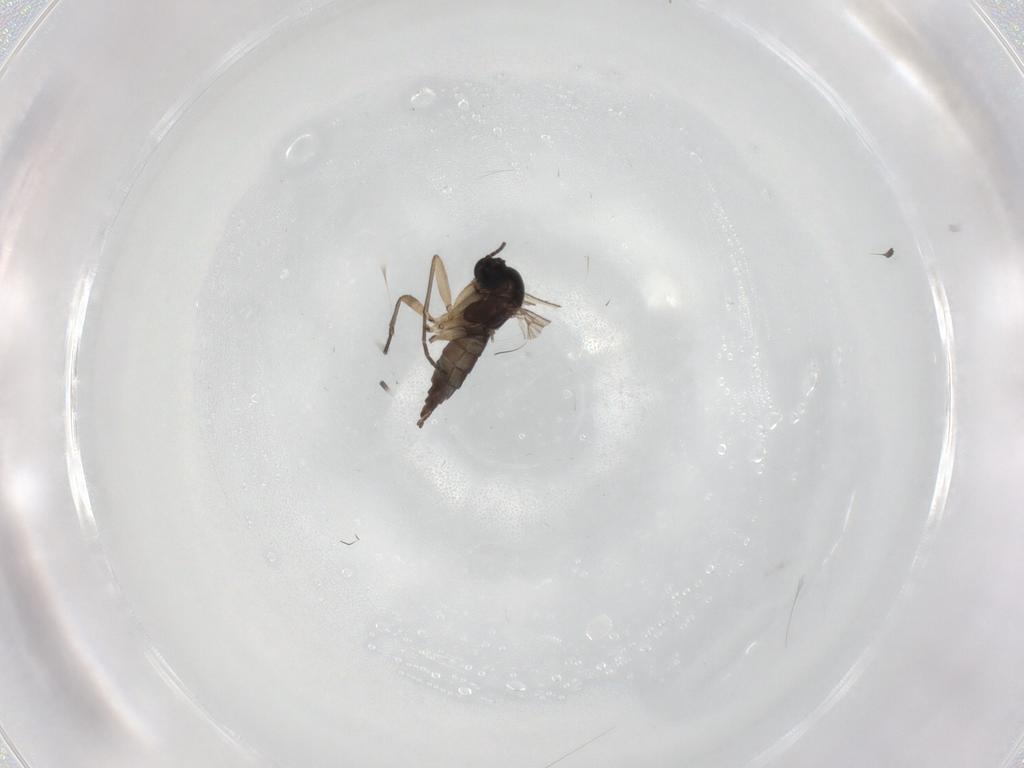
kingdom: Animalia
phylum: Arthropoda
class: Insecta
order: Diptera
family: Sciaridae
